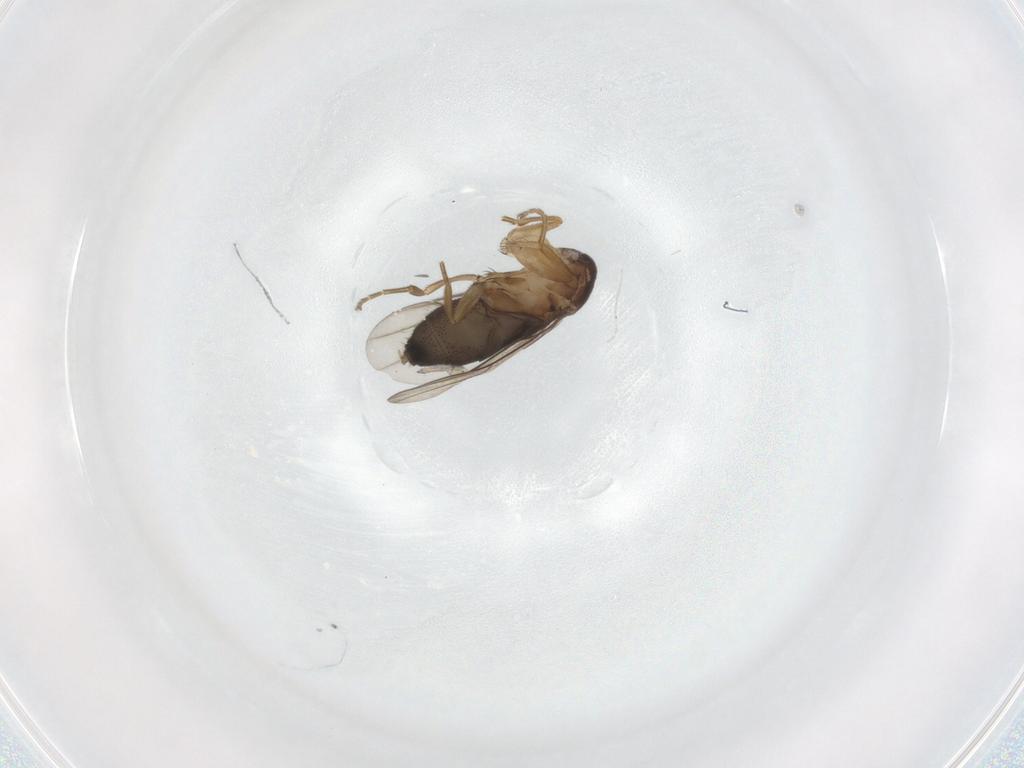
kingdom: Animalia
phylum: Arthropoda
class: Insecta
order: Diptera
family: Phoridae
